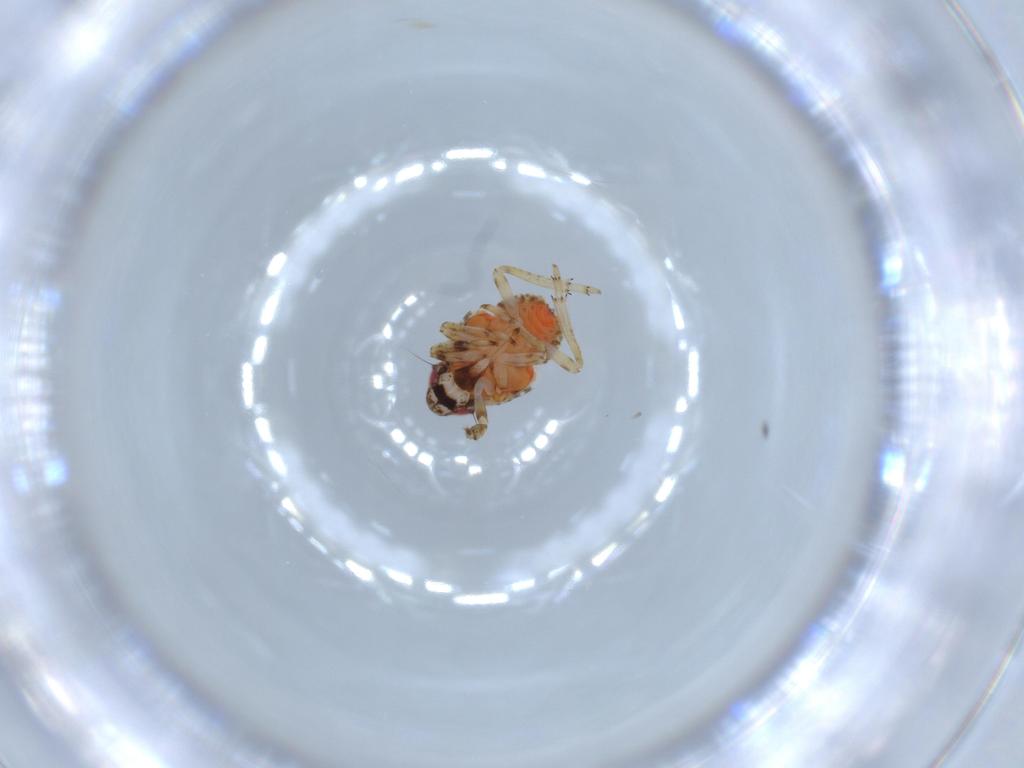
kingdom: Animalia
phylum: Arthropoda
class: Insecta
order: Hemiptera
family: Issidae
